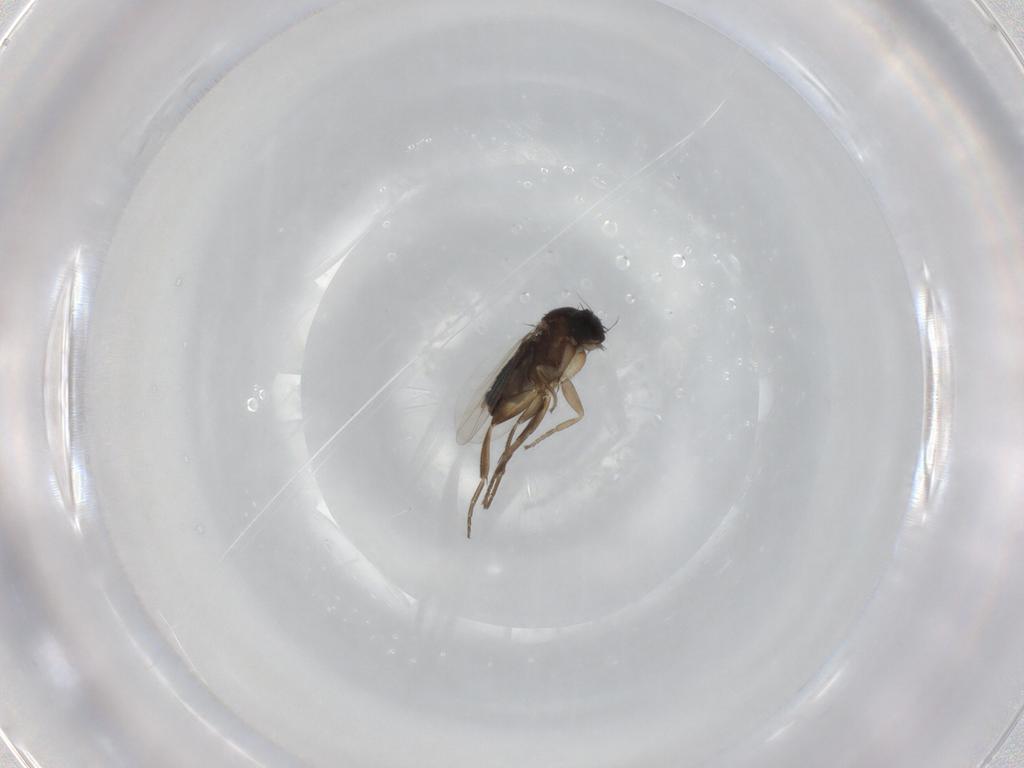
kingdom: Animalia
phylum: Arthropoda
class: Insecta
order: Diptera
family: Phoridae
